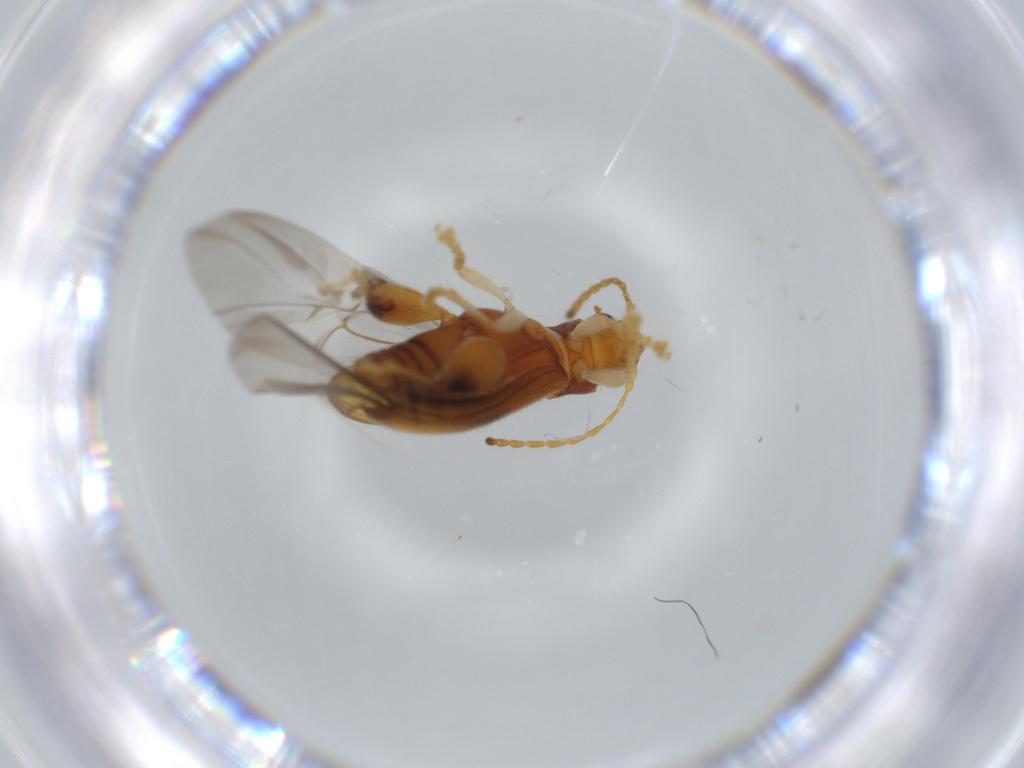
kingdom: Animalia
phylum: Arthropoda
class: Insecta
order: Coleoptera
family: Chrysomelidae
